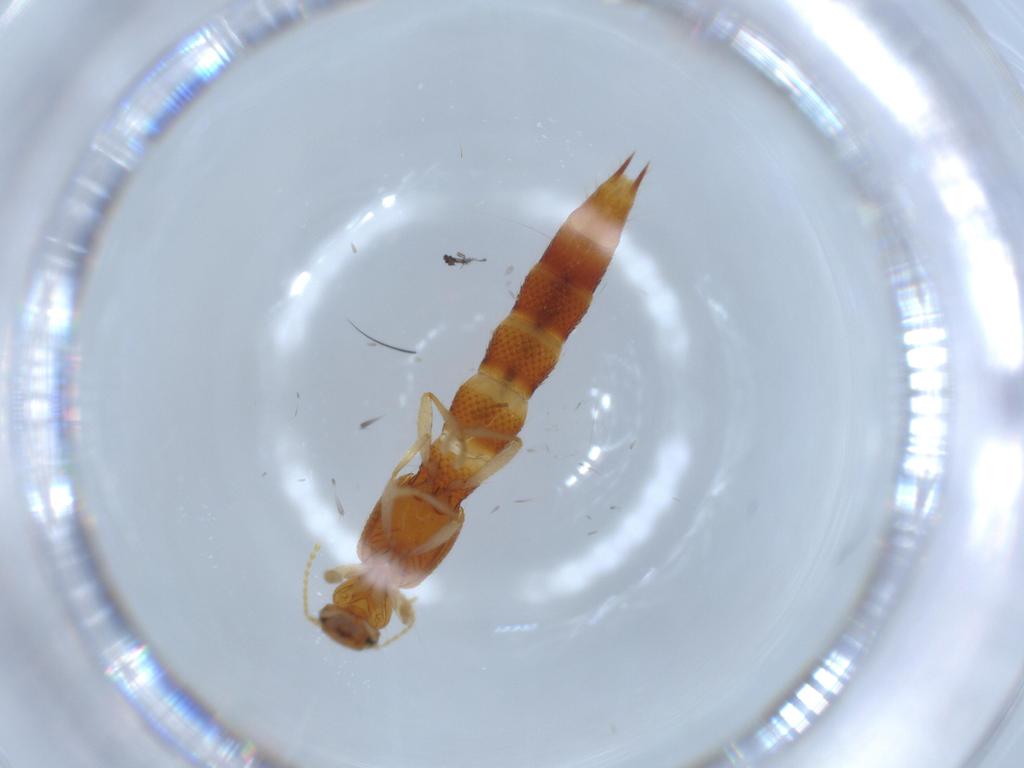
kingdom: Animalia
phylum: Arthropoda
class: Insecta
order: Coleoptera
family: Staphylinidae
